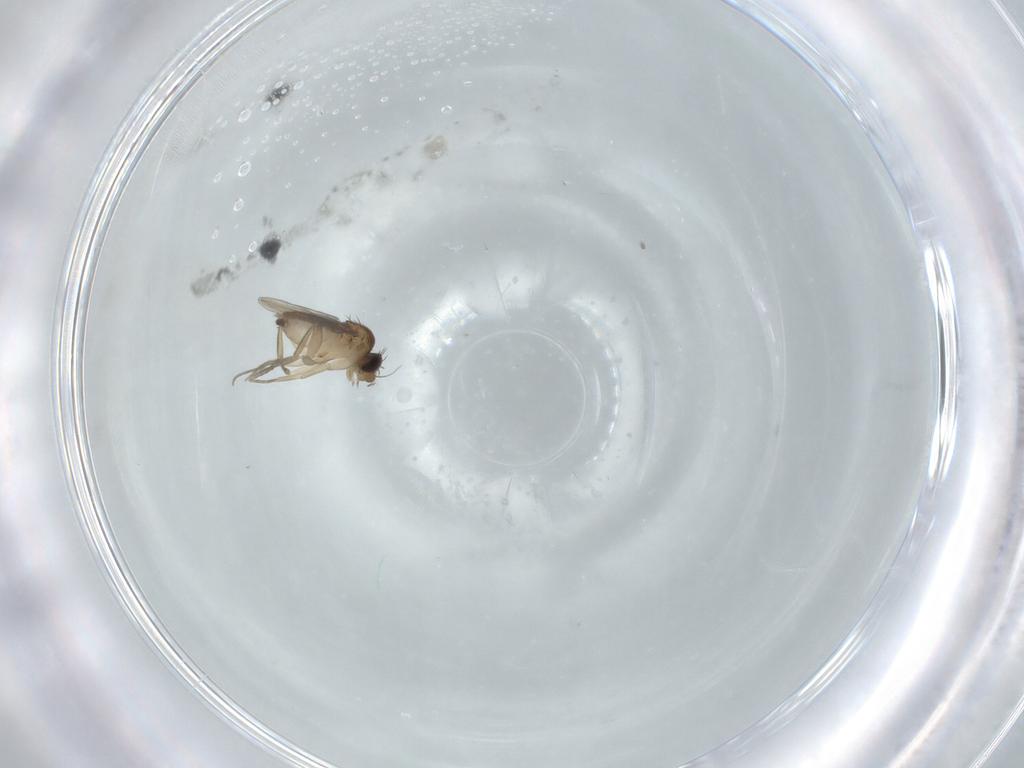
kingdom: Animalia
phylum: Arthropoda
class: Insecta
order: Diptera
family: Phoridae
